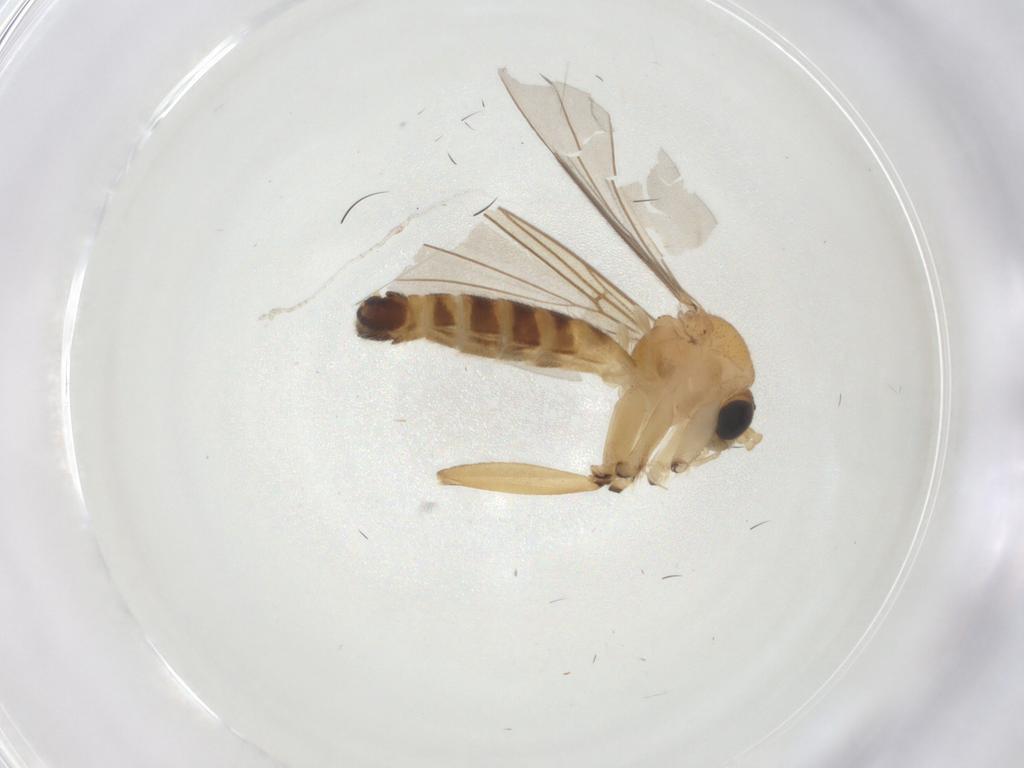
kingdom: Animalia
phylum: Arthropoda
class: Insecta
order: Diptera
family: Mycetophilidae
